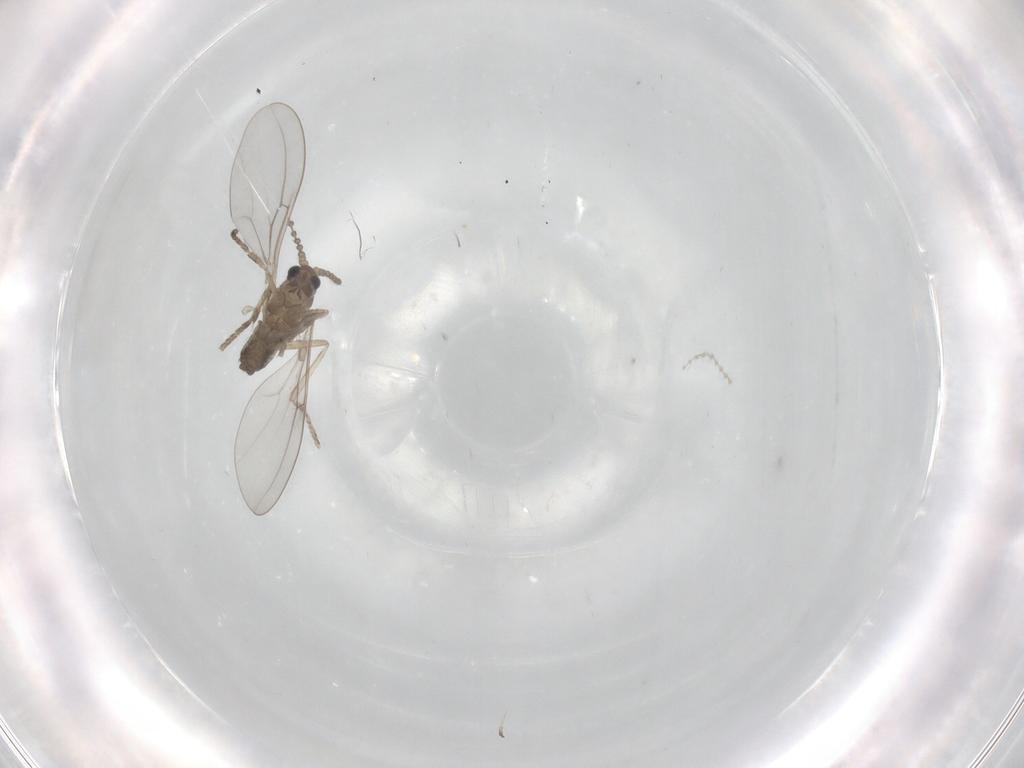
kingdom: Animalia
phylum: Arthropoda
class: Insecta
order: Diptera
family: Cecidomyiidae
